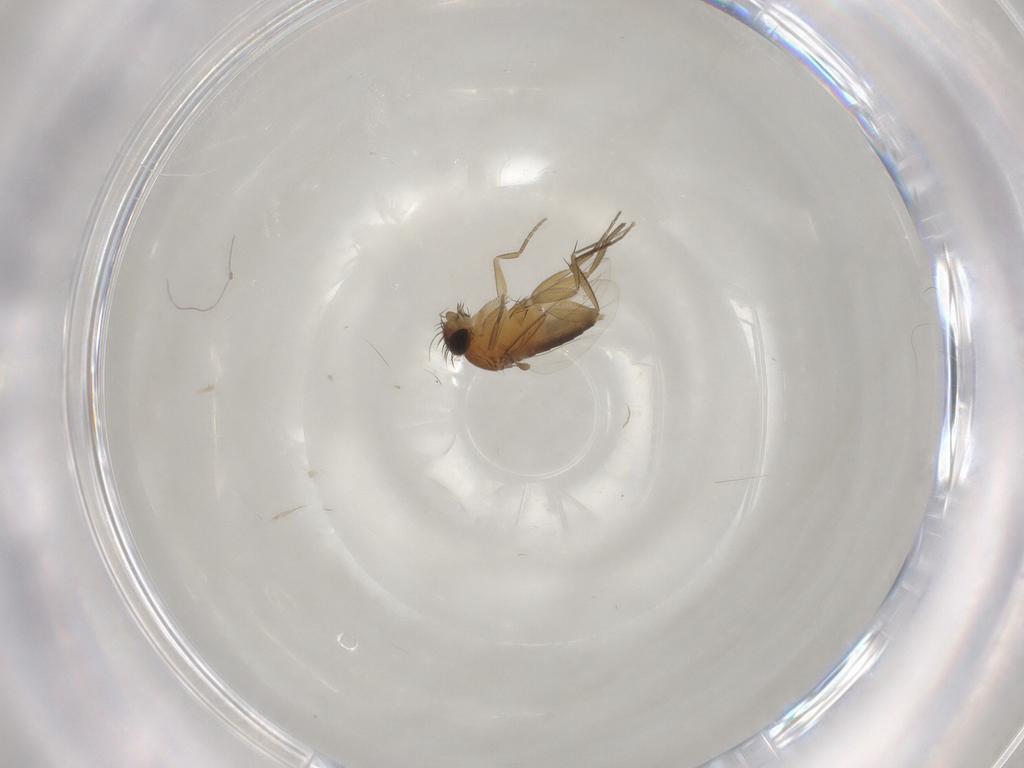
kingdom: Animalia
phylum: Arthropoda
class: Insecta
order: Diptera
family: Phoridae
